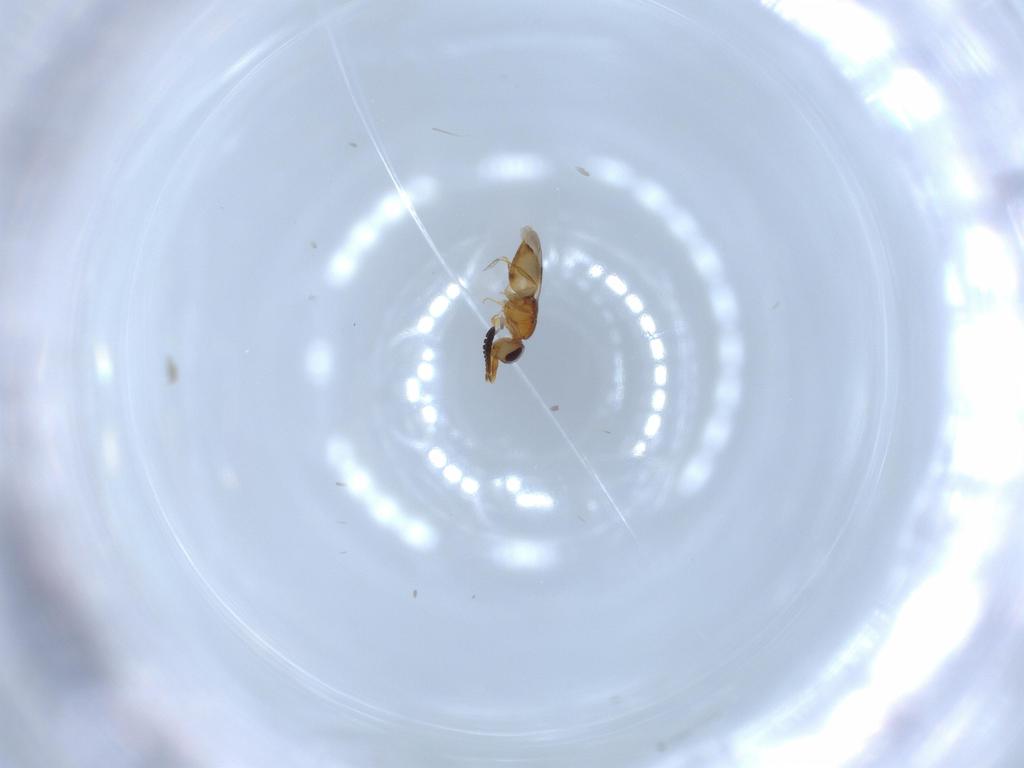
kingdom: Animalia
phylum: Arthropoda
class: Insecta
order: Hymenoptera
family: Ceraphronidae
